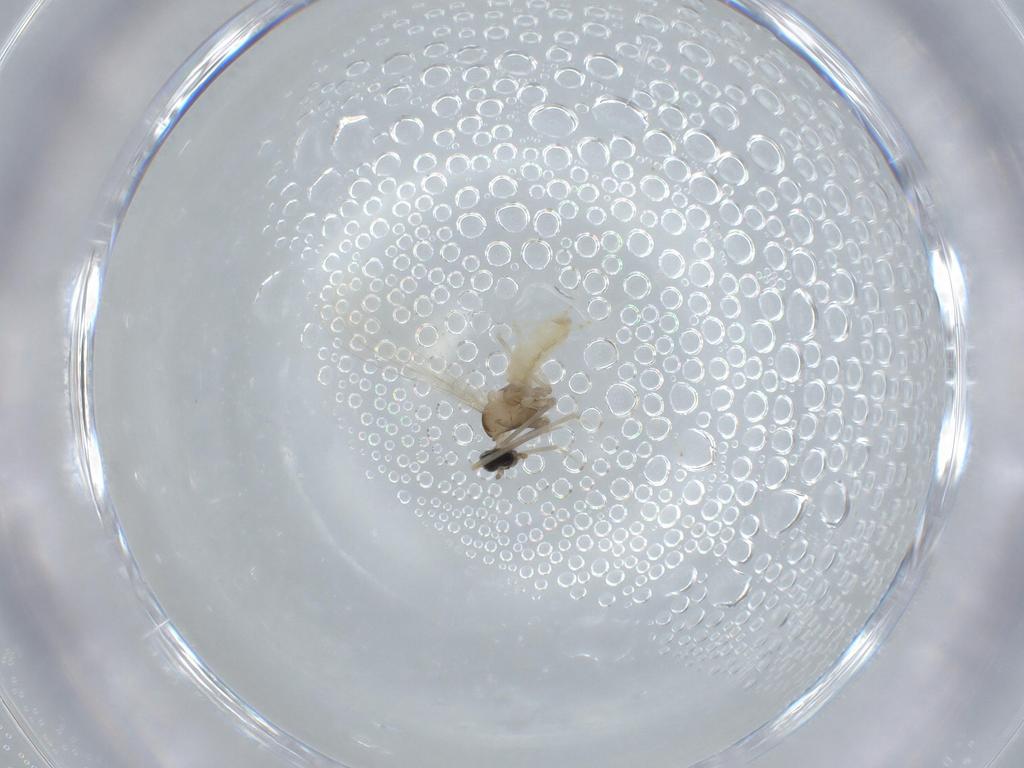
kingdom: Animalia
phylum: Arthropoda
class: Insecta
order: Diptera
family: Cecidomyiidae
